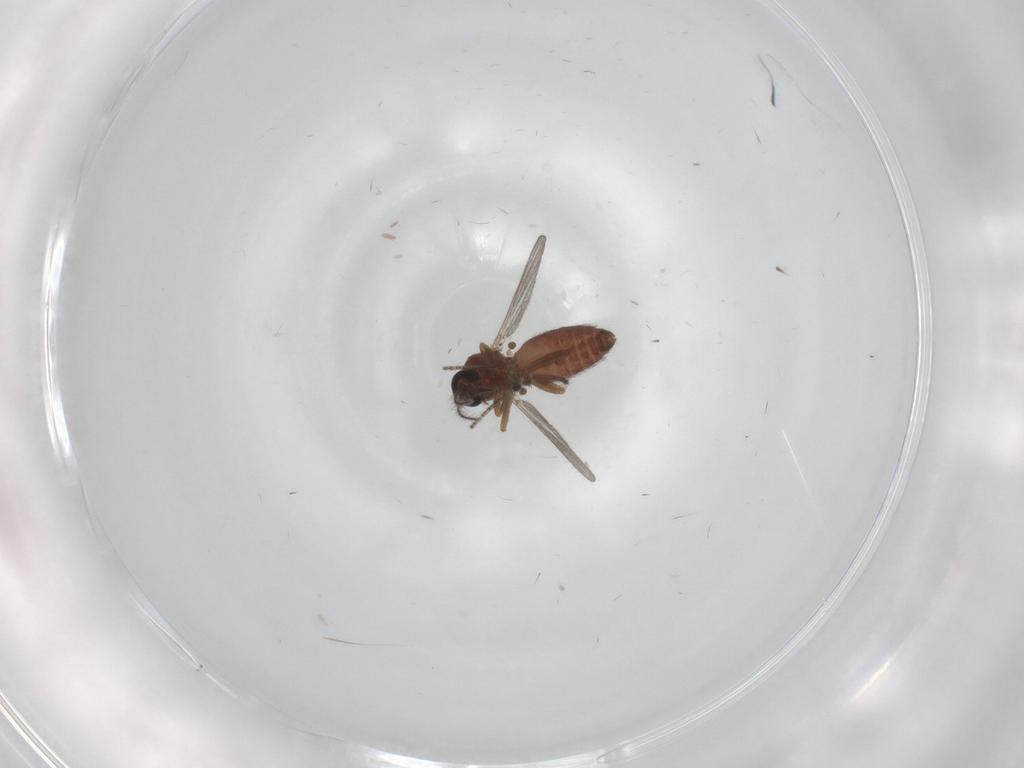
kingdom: Animalia
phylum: Arthropoda
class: Insecta
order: Diptera
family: Ceratopogonidae
